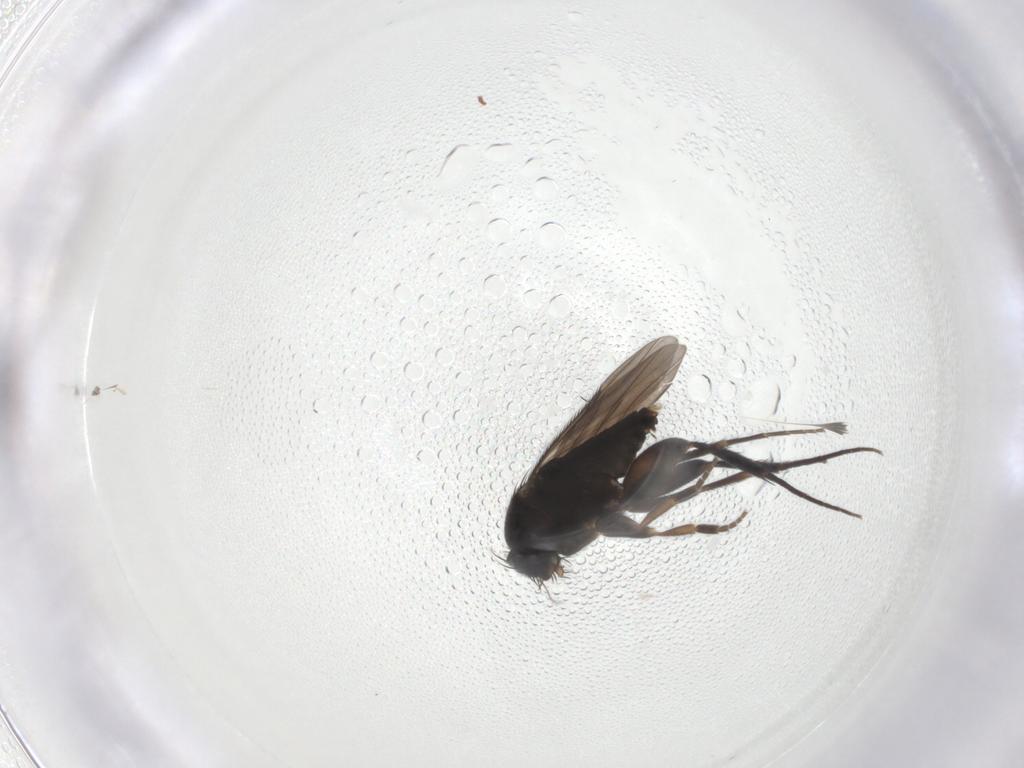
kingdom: Animalia
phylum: Arthropoda
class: Insecta
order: Diptera
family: Phoridae
